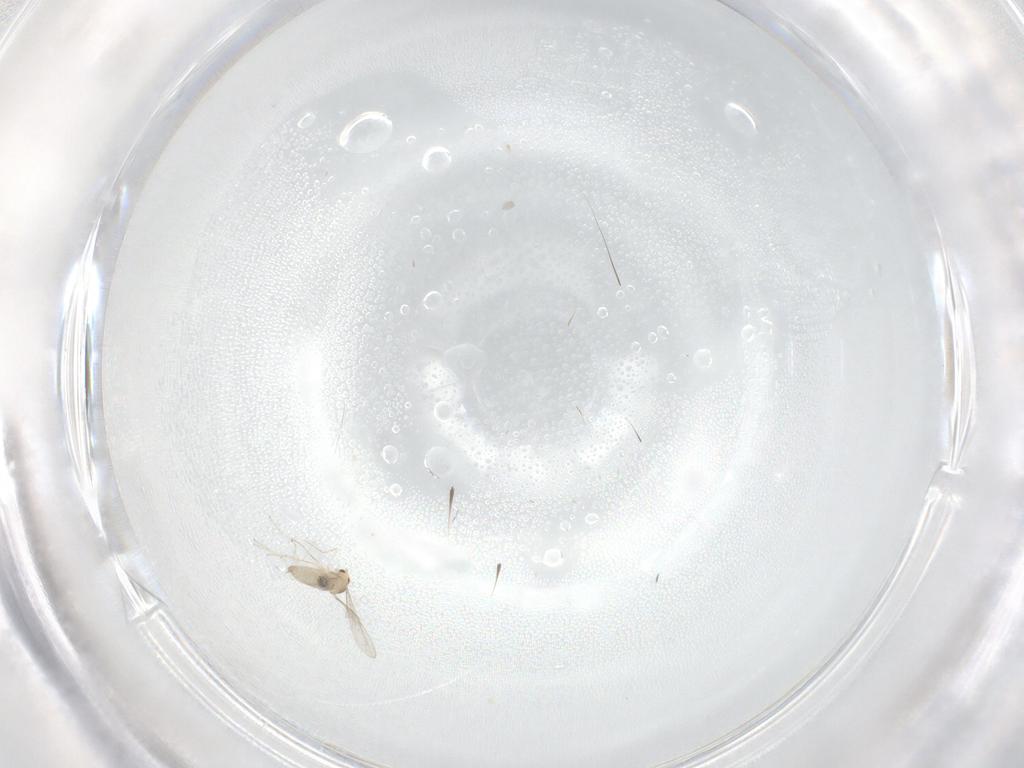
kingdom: Animalia
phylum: Arthropoda
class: Insecta
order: Diptera
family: Cecidomyiidae
